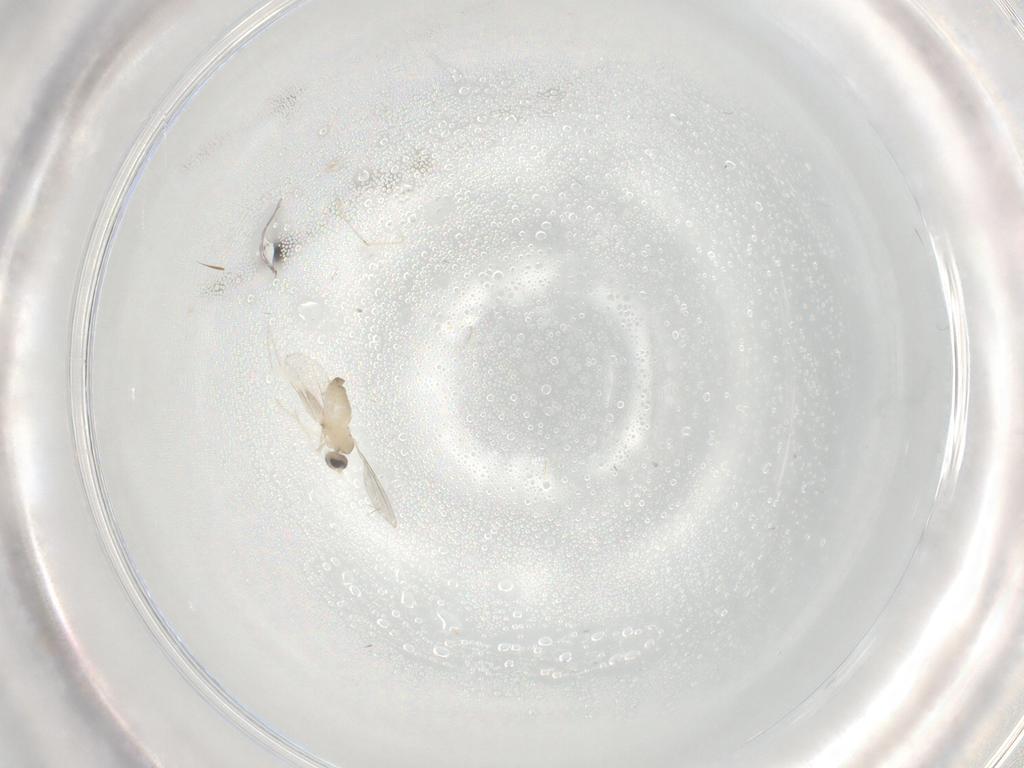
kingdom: Animalia
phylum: Arthropoda
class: Insecta
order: Diptera
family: Cecidomyiidae
